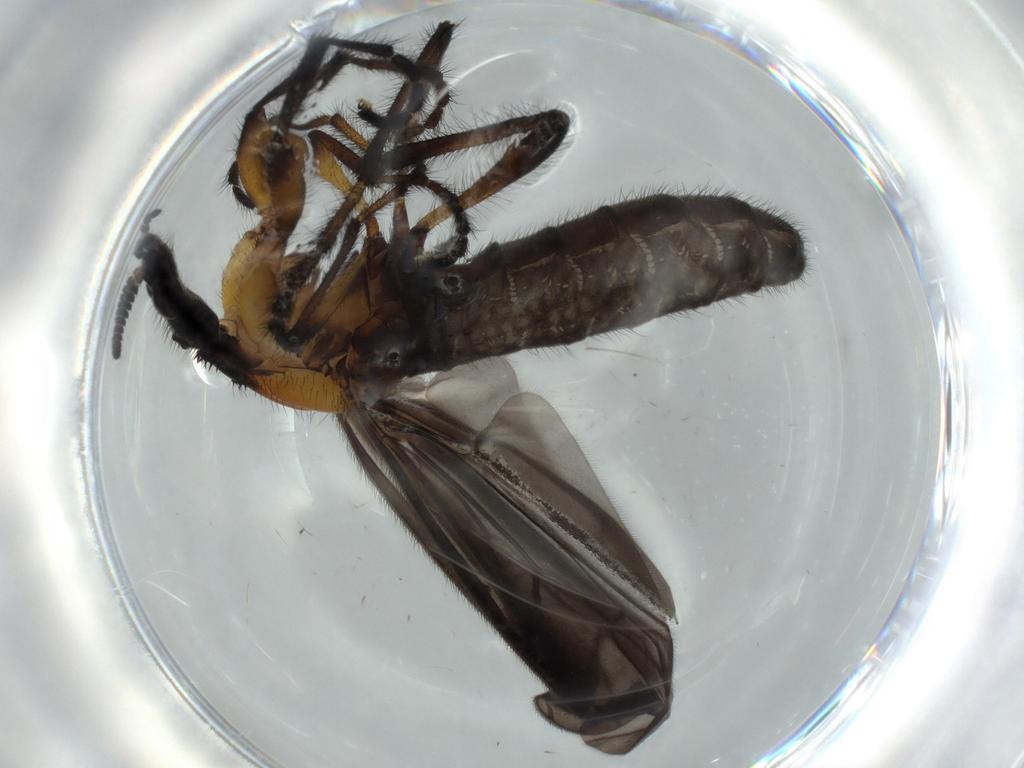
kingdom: Animalia
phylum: Arthropoda
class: Insecta
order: Diptera
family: Bibionidae
